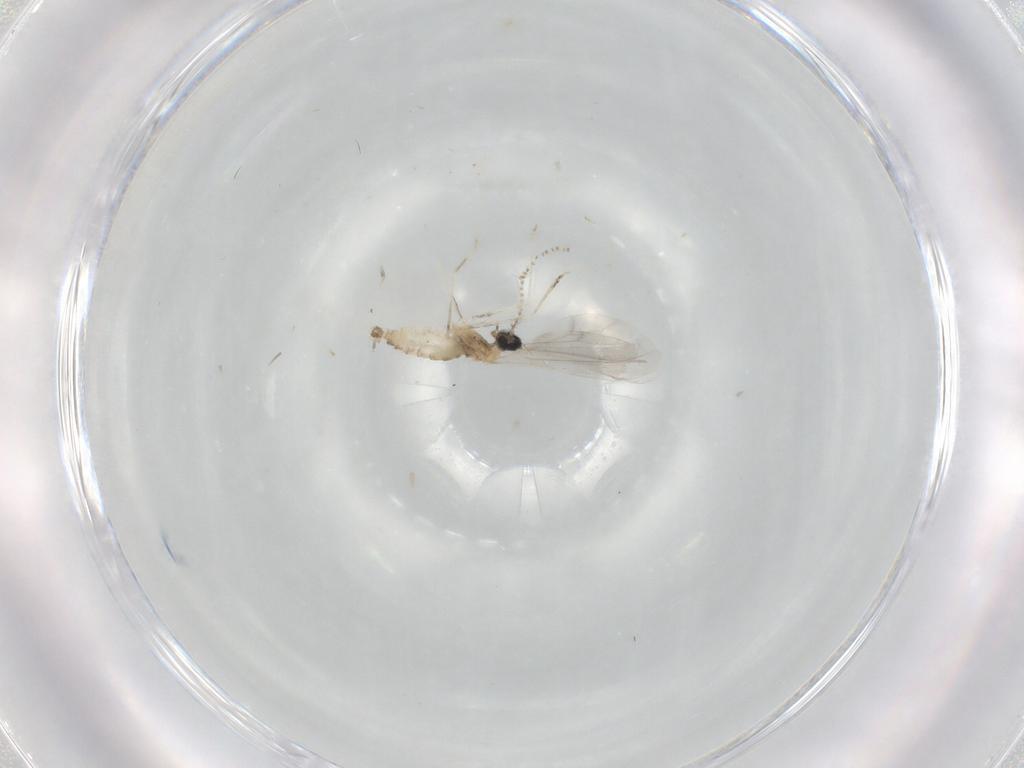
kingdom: Animalia
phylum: Arthropoda
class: Insecta
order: Diptera
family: Cecidomyiidae
